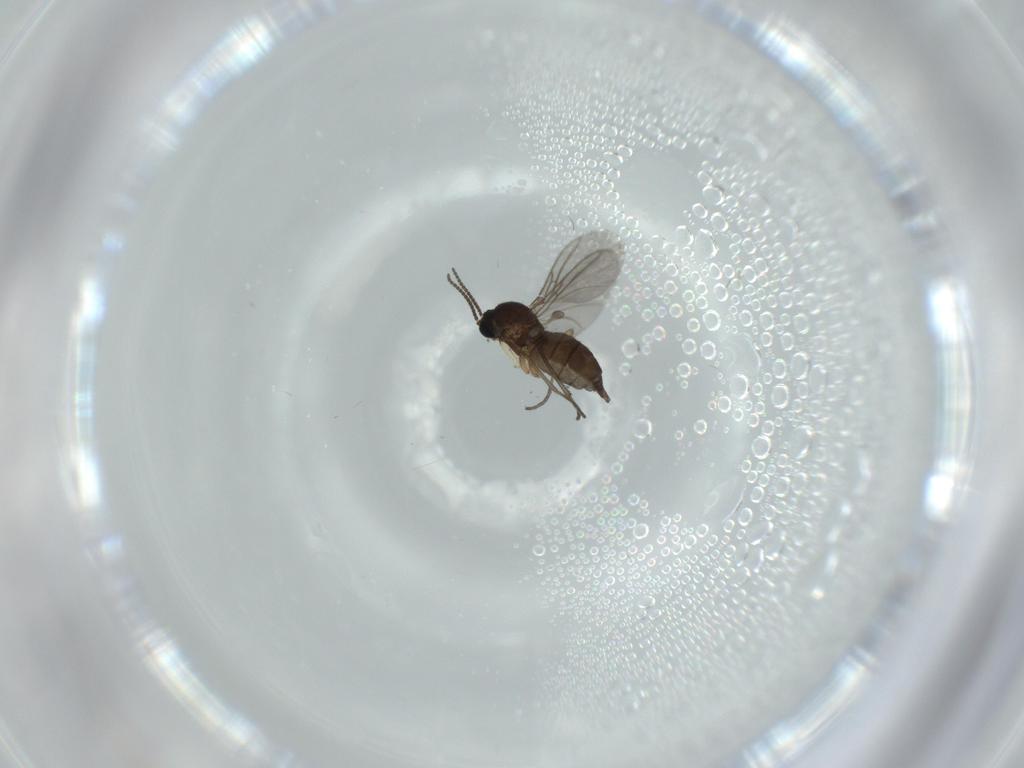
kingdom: Animalia
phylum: Arthropoda
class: Insecta
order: Diptera
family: Sciaridae
